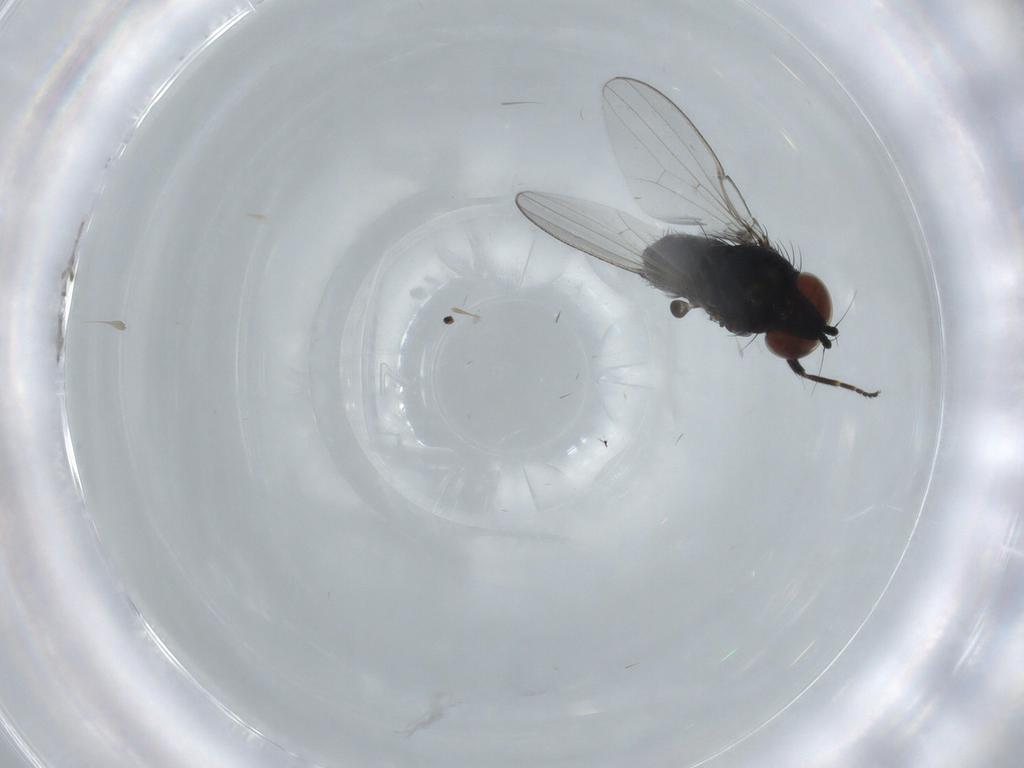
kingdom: Animalia
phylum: Arthropoda
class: Insecta
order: Diptera
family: Milichiidae
